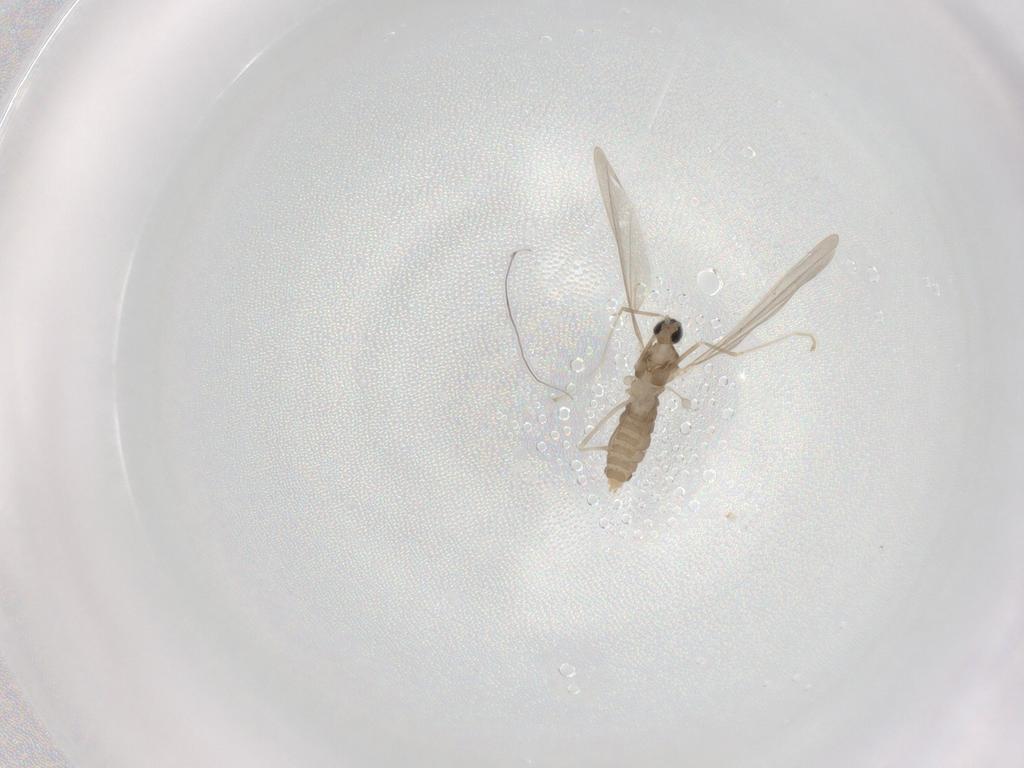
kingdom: Animalia
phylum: Arthropoda
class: Insecta
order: Diptera
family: Cecidomyiidae
